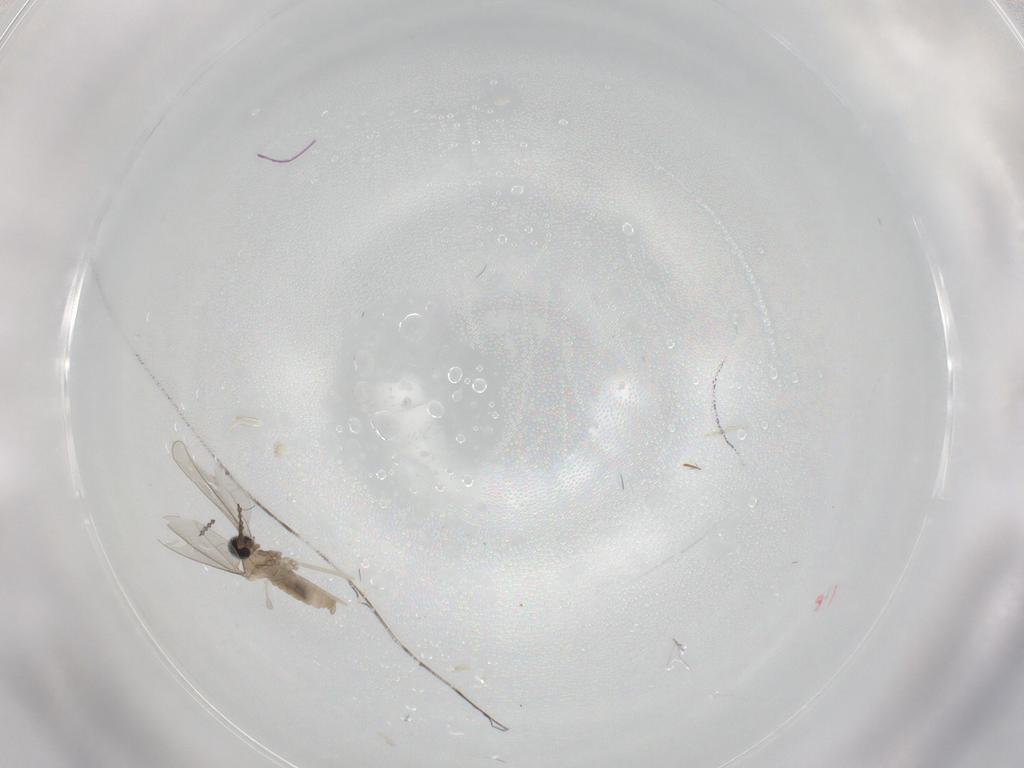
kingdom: Animalia
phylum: Arthropoda
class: Insecta
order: Diptera
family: Cecidomyiidae
